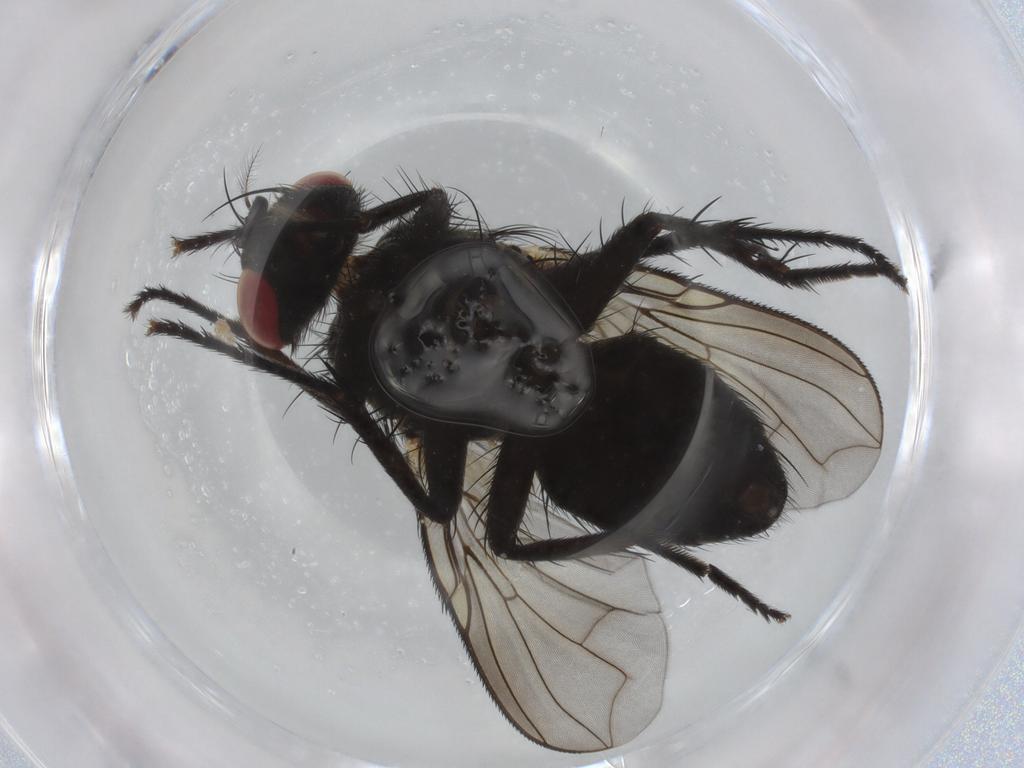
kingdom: Animalia
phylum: Arthropoda
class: Insecta
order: Diptera
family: Sarcophagidae
